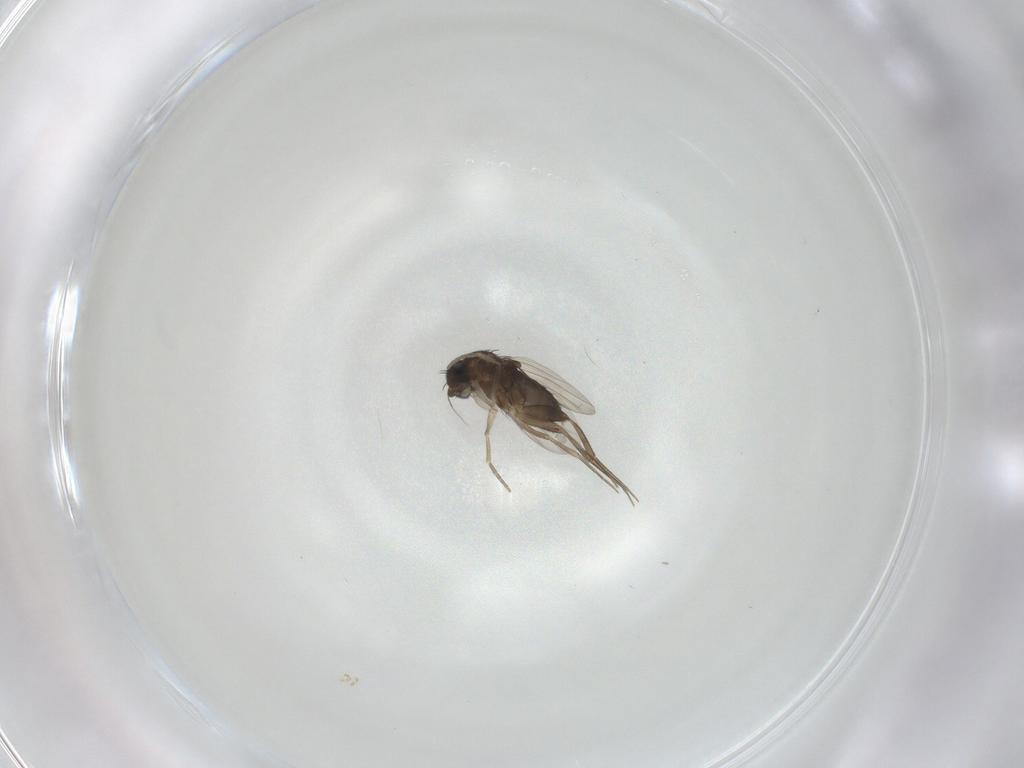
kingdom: Animalia
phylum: Arthropoda
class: Insecta
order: Diptera
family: Phoridae
